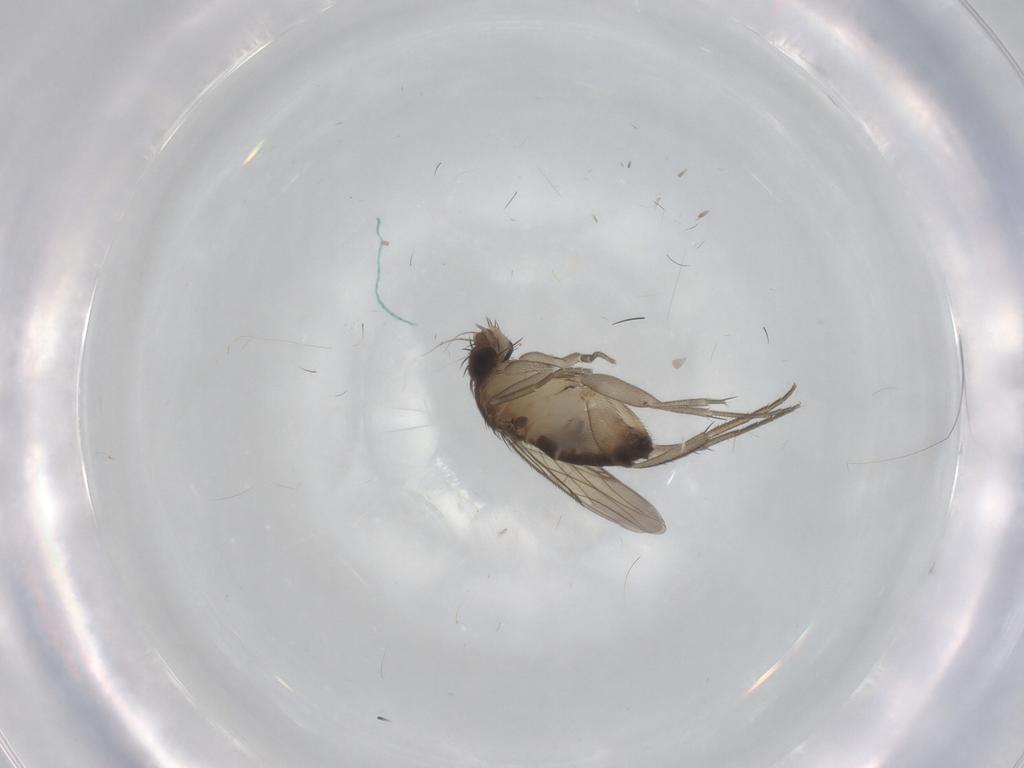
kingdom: Animalia
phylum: Arthropoda
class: Insecta
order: Diptera
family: Phoridae
